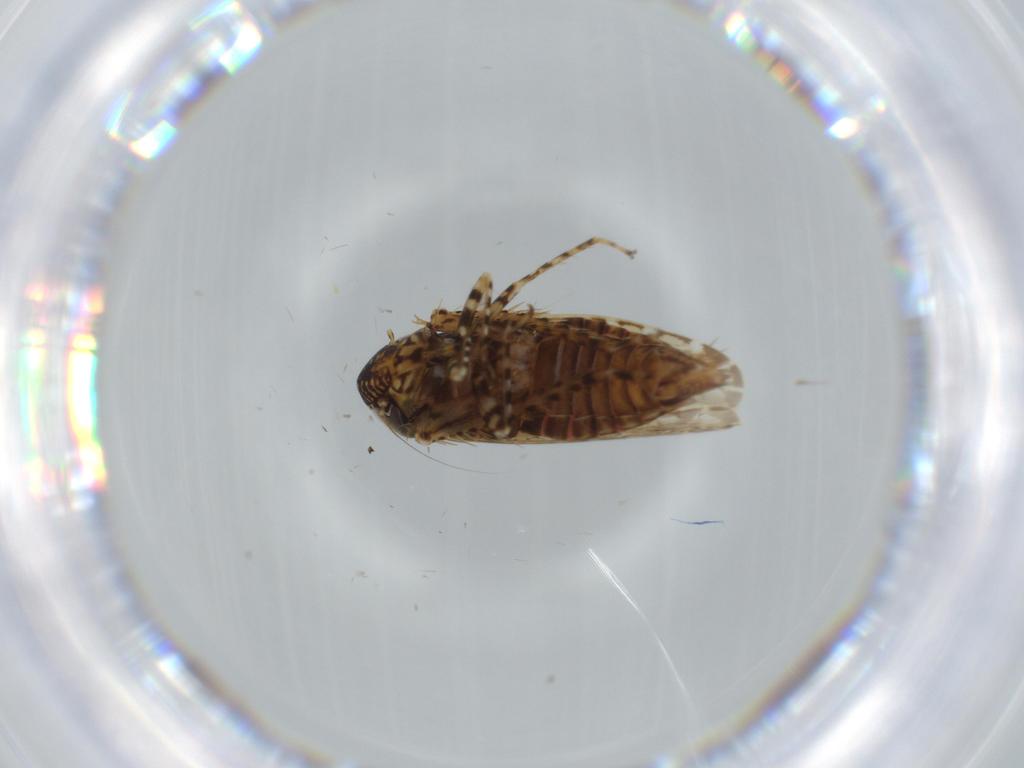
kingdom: Animalia
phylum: Arthropoda
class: Insecta
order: Hemiptera
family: Cicadellidae
